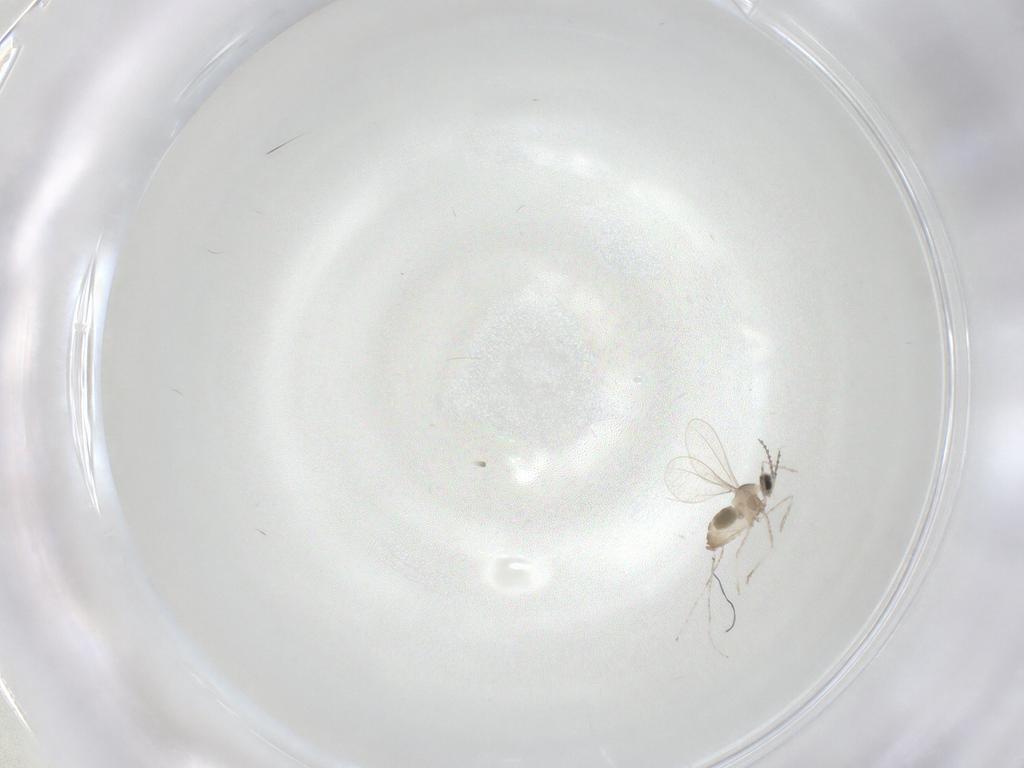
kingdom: Animalia
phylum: Arthropoda
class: Insecta
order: Diptera
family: Cecidomyiidae
